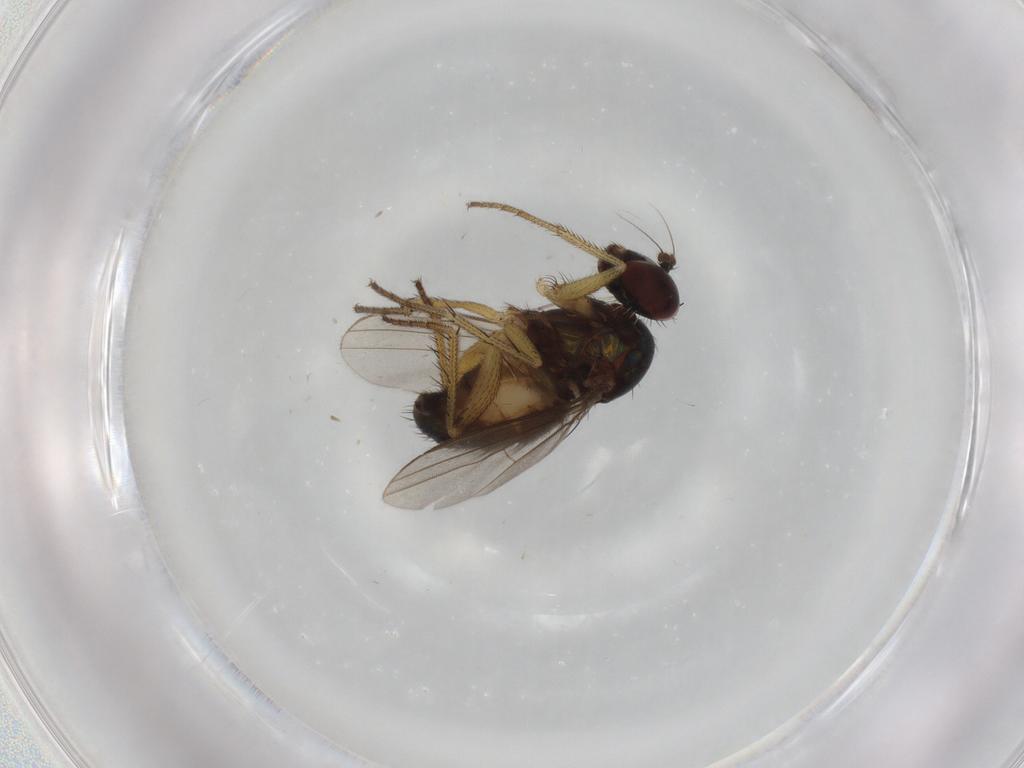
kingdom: Animalia
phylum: Arthropoda
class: Insecta
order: Diptera
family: Dolichopodidae
